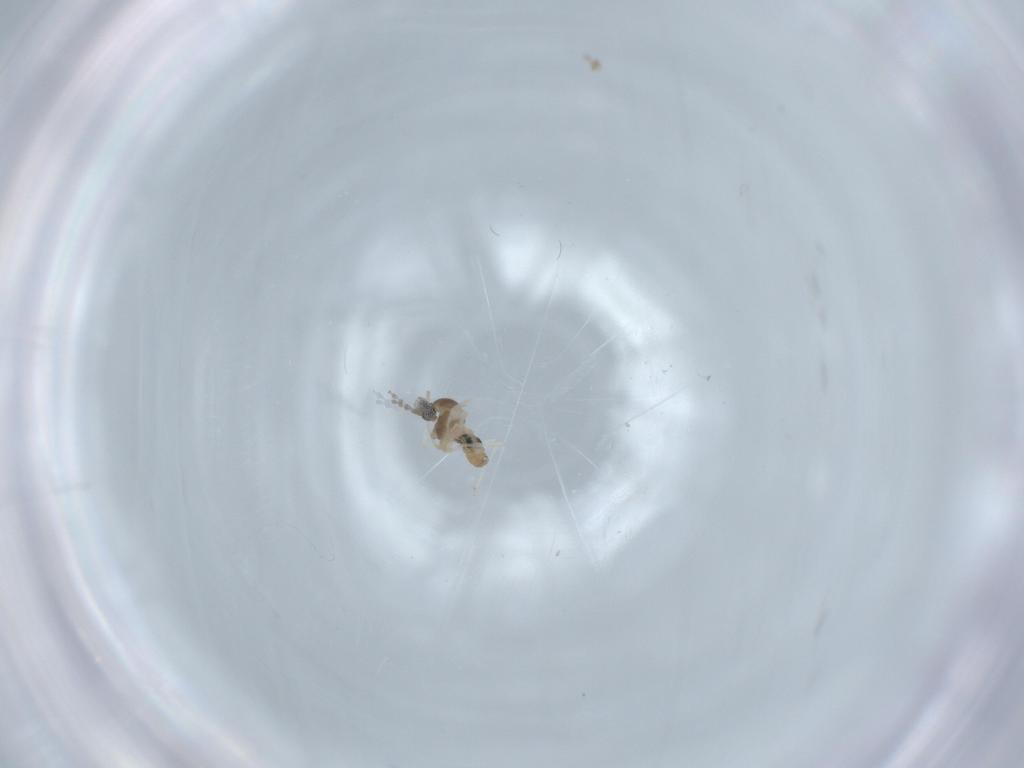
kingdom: Animalia
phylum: Arthropoda
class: Insecta
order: Diptera
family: Cecidomyiidae
